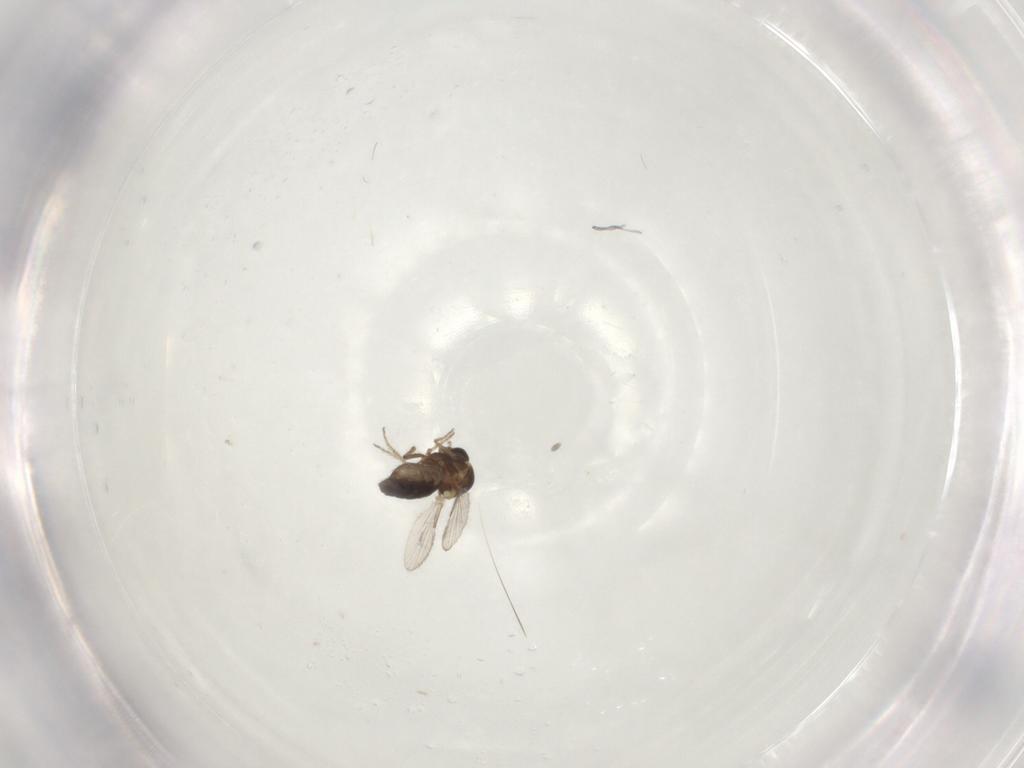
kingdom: Animalia
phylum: Arthropoda
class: Insecta
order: Diptera
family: Ceratopogonidae
